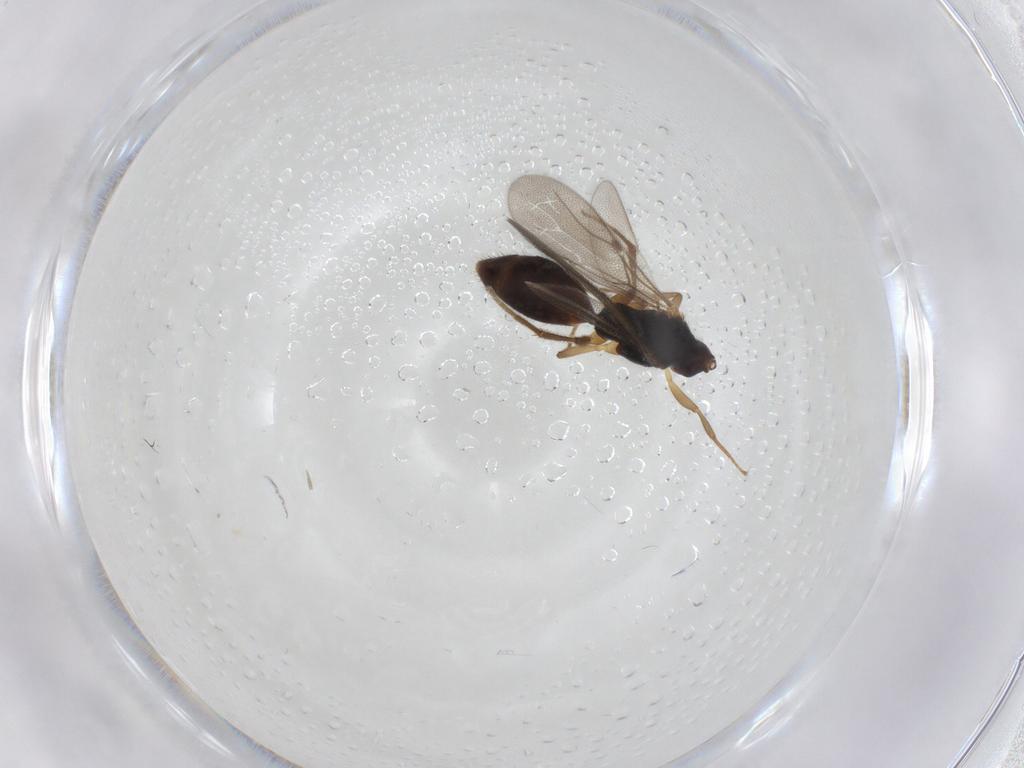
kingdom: Animalia
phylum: Arthropoda
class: Insecta
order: Hymenoptera
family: Bethylidae
